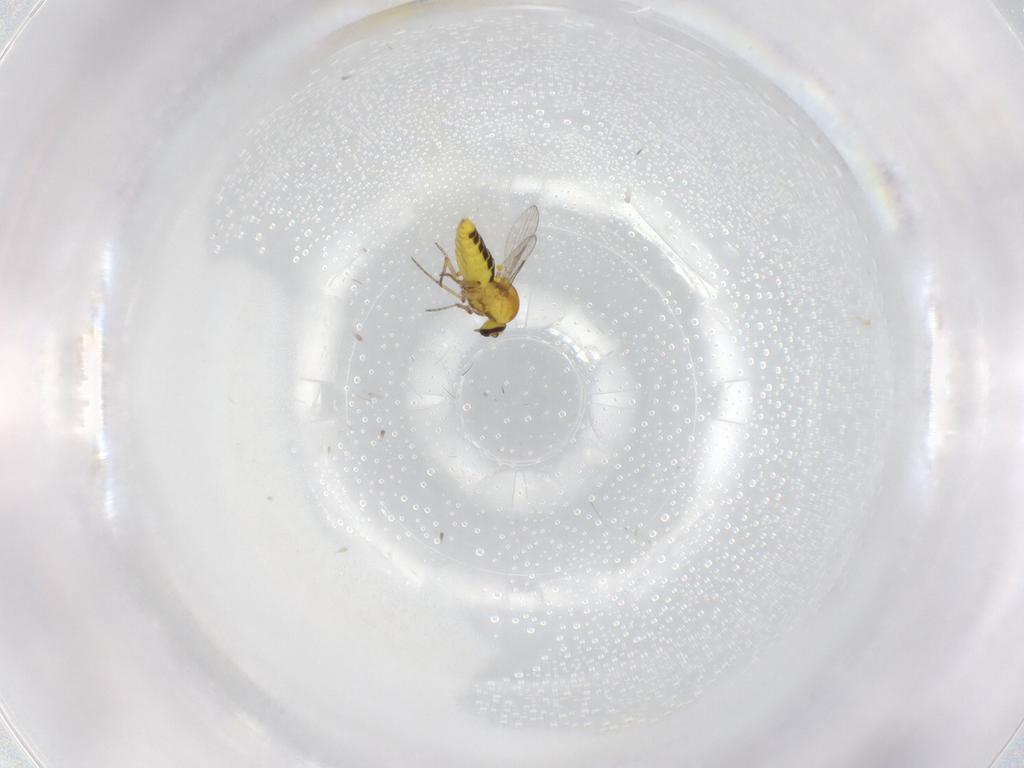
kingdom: Animalia
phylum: Arthropoda
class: Insecta
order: Diptera
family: Ceratopogonidae
